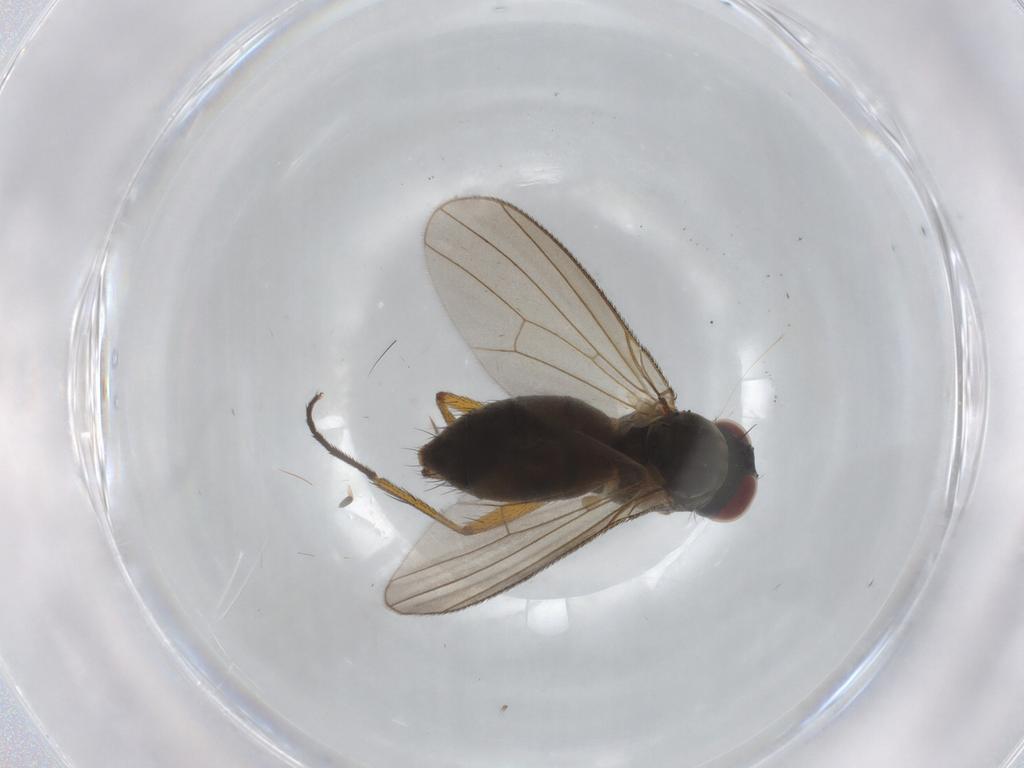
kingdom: Animalia
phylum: Arthropoda
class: Insecta
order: Diptera
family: Muscidae
